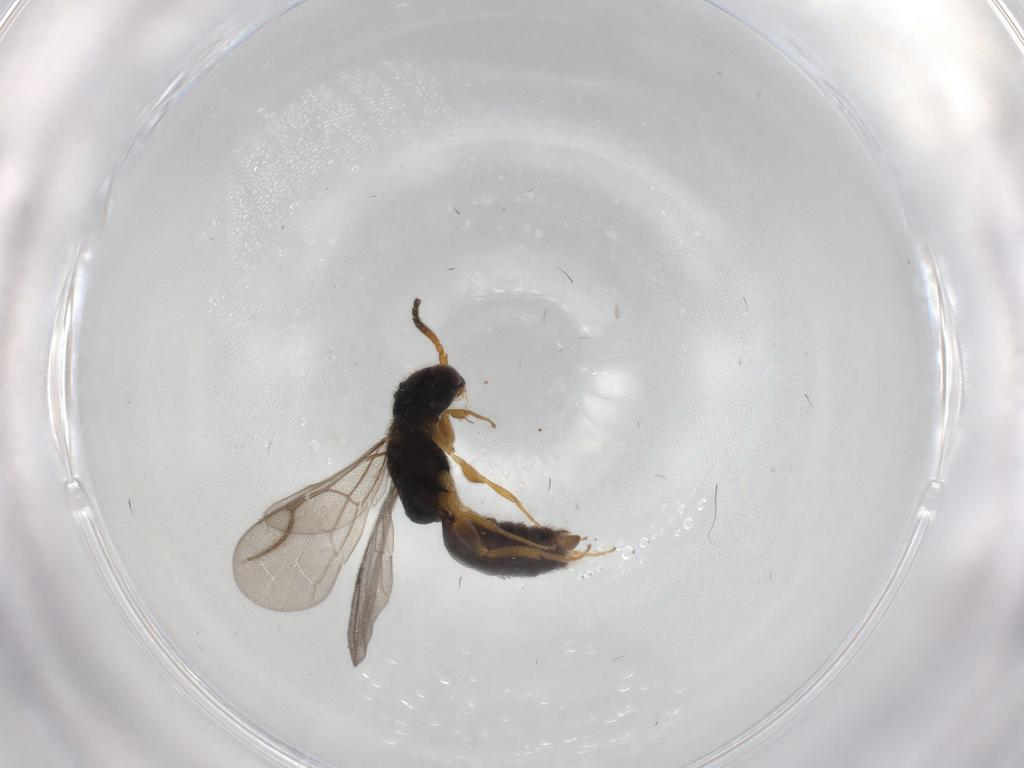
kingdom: Animalia
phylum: Arthropoda
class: Insecta
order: Hymenoptera
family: Bethylidae
